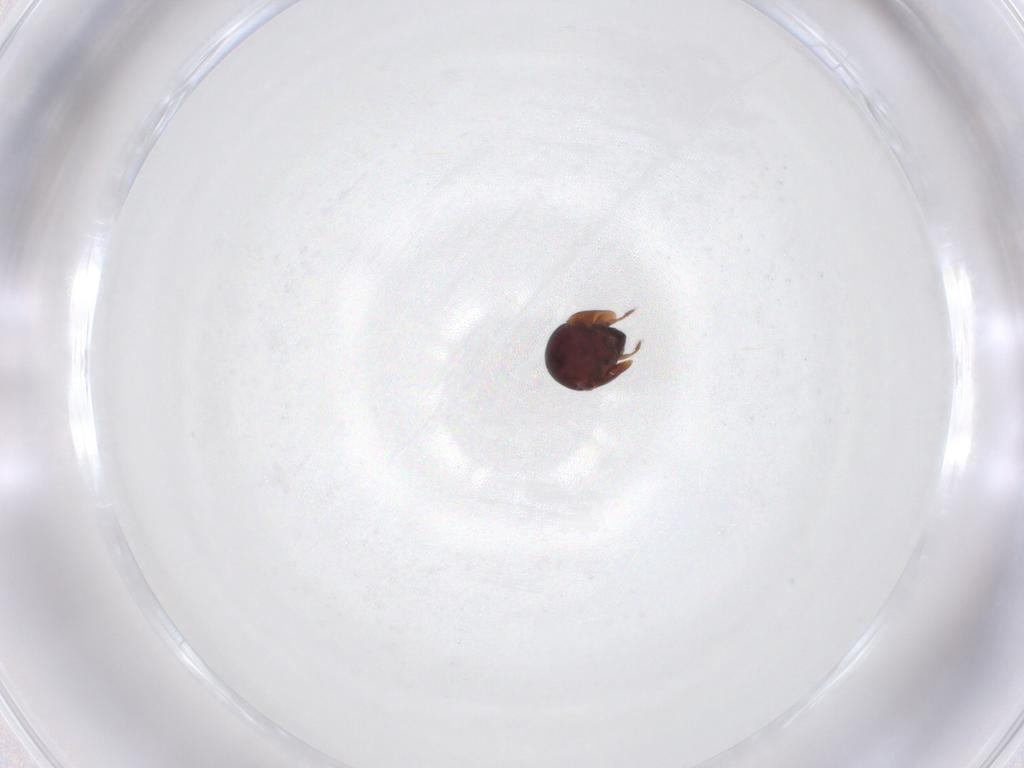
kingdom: Animalia
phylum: Arthropoda
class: Arachnida
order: Sarcoptiformes
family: Galumnidae
